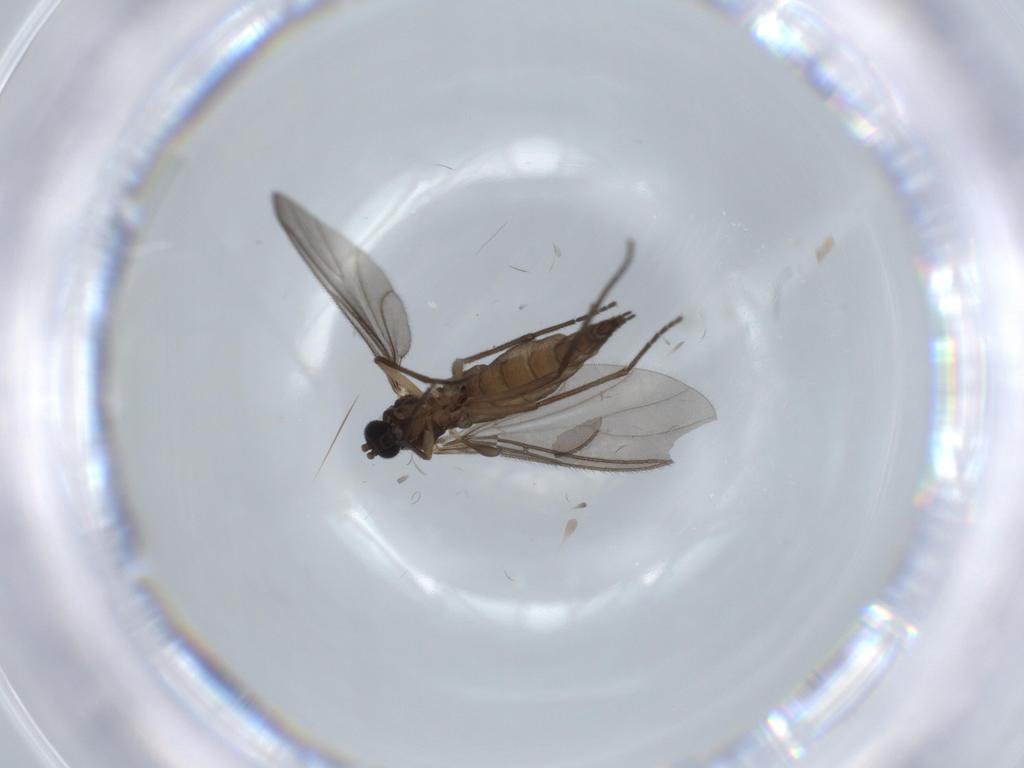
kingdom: Animalia
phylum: Arthropoda
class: Insecta
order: Diptera
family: Sciaridae
